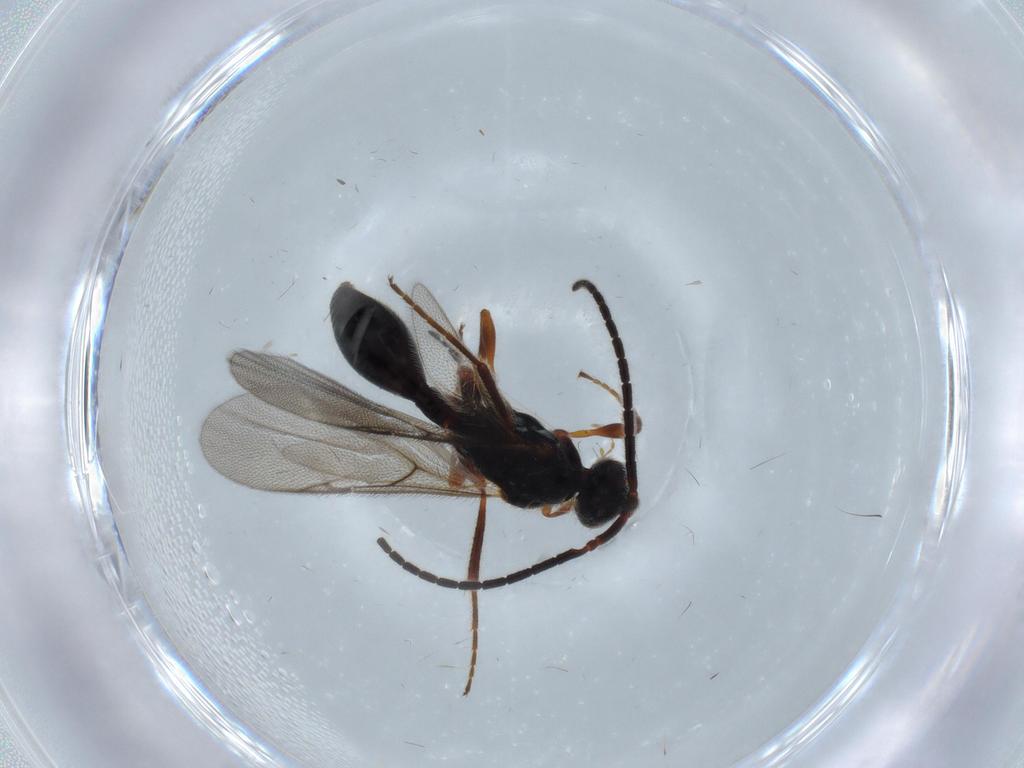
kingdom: Animalia
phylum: Arthropoda
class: Insecta
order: Hymenoptera
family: Diapriidae
